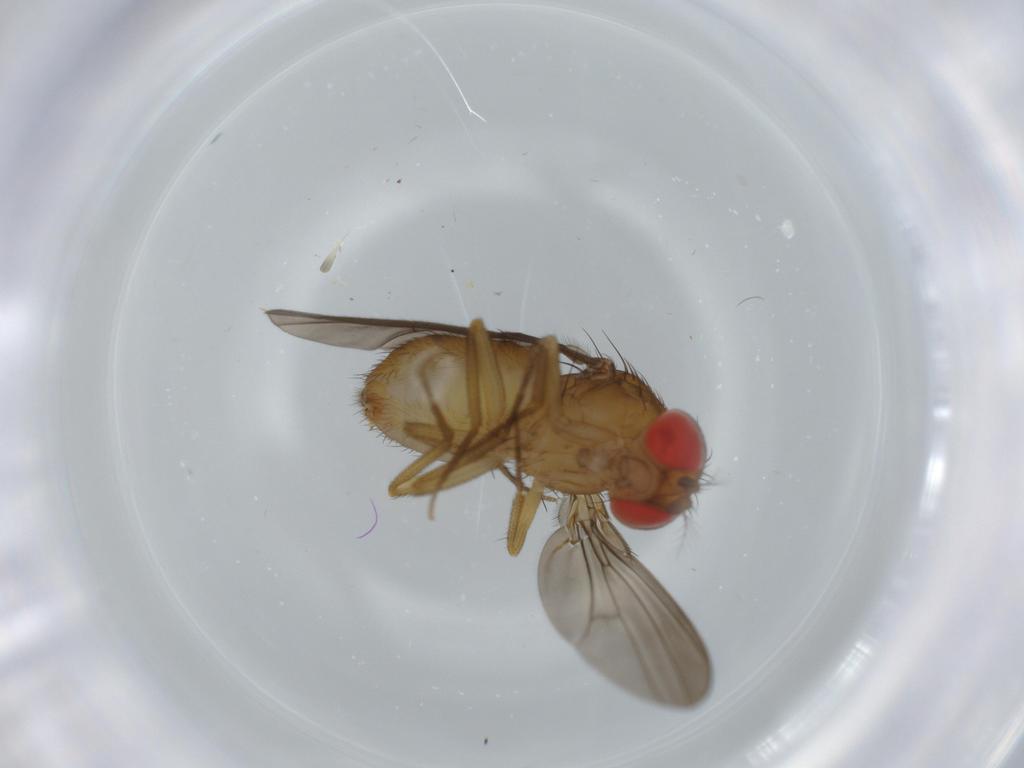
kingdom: Animalia
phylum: Arthropoda
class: Insecta
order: Diptera
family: Drosophilidae
